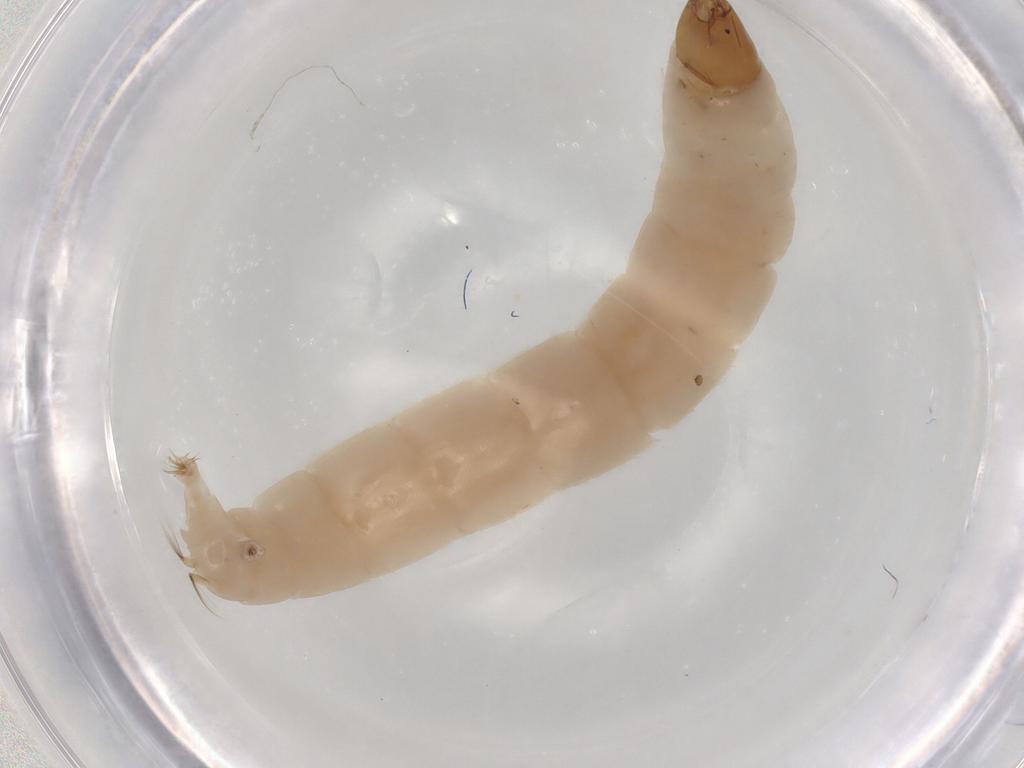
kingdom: Animalia
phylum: Arthropoda
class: Insecta
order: Diptera
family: Chironomidae
